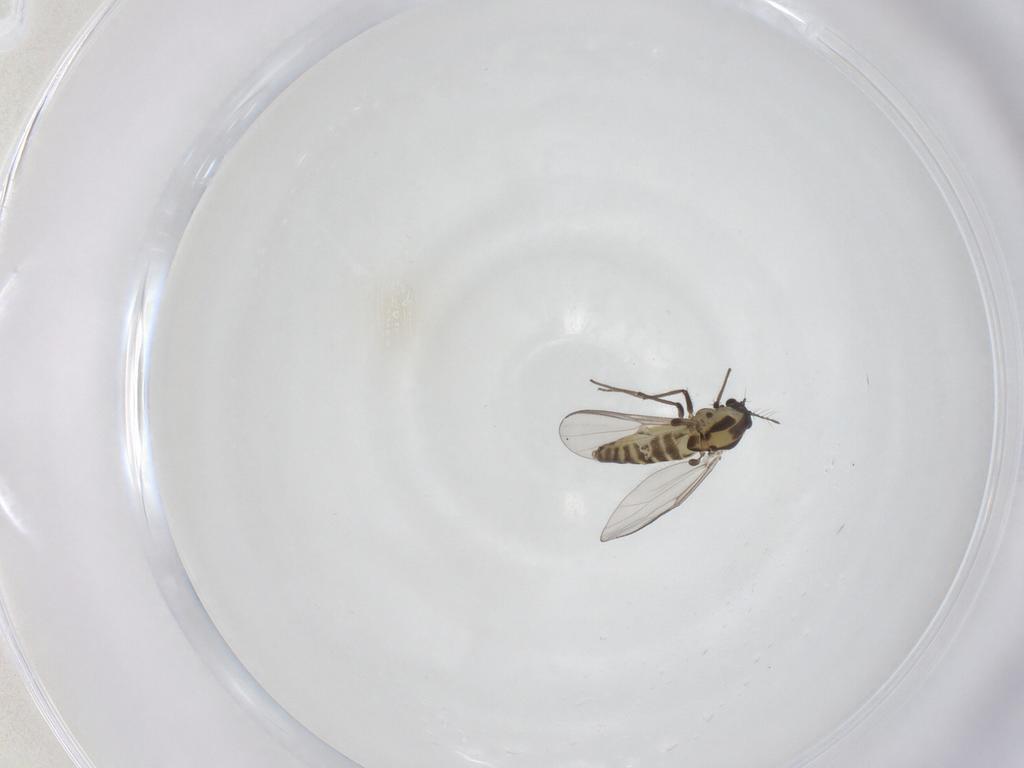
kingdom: Animalia
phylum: Arthropoda
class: Insecta
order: Diptera
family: Chironomidae
